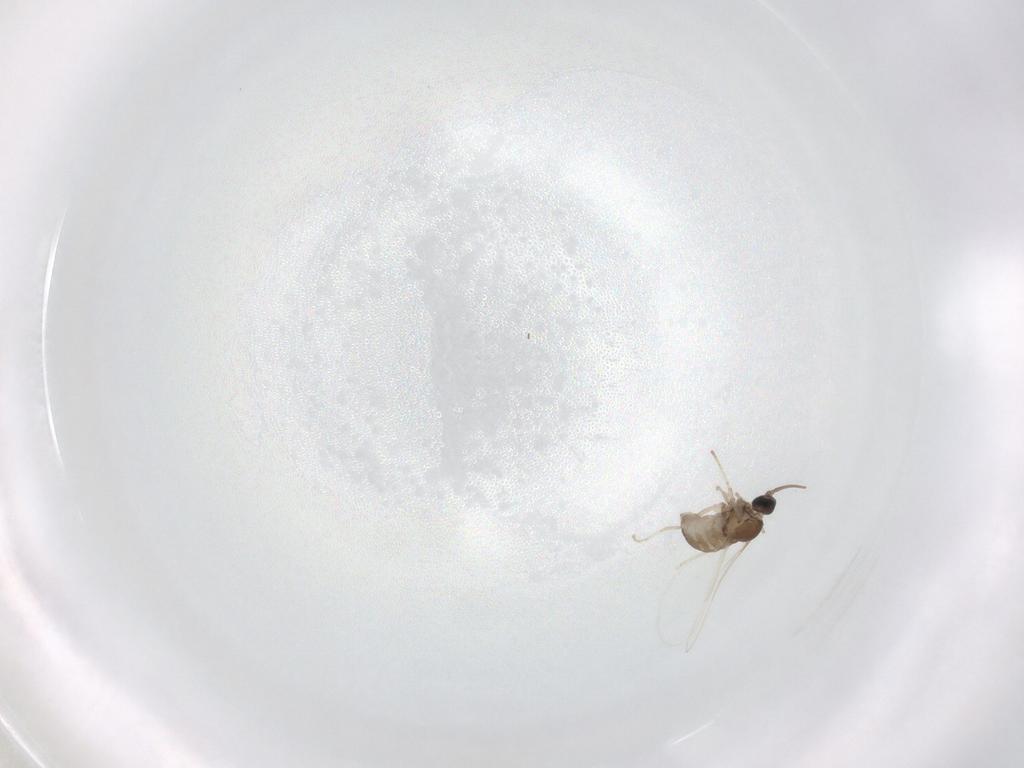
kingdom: Animalia
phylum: Arthropoda
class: Insecta
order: Diptera
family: Cecidomyiidae
